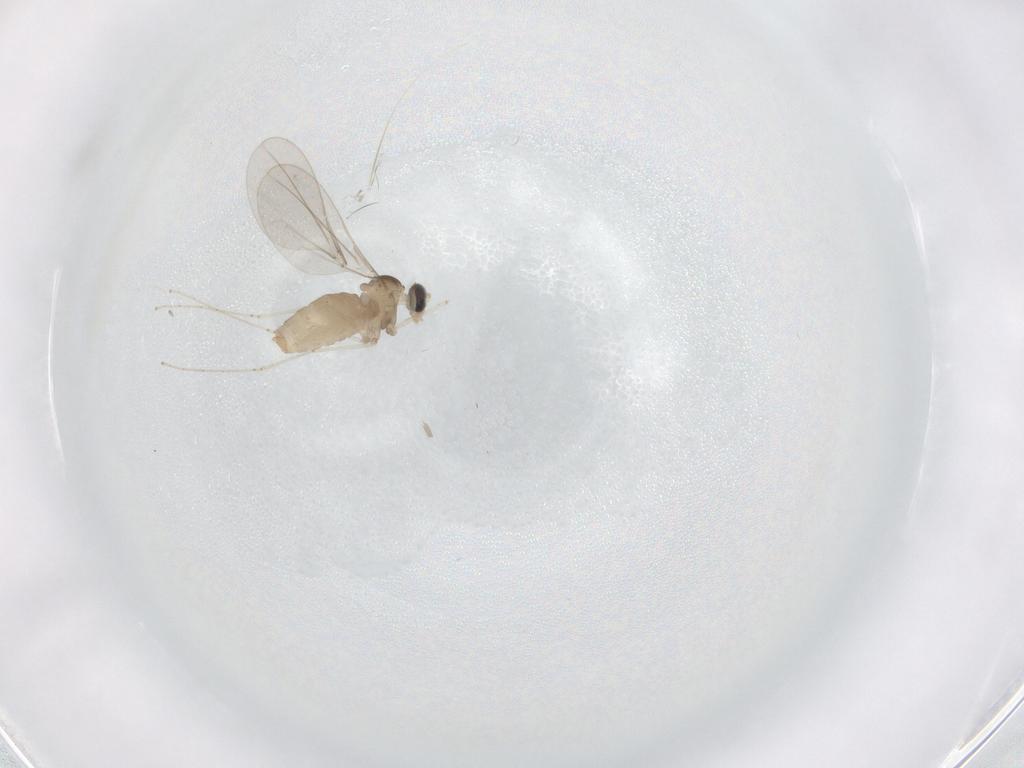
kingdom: Animalia
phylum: Arthropoda
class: Insecta
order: Diptera
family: Cecidomyiidae
